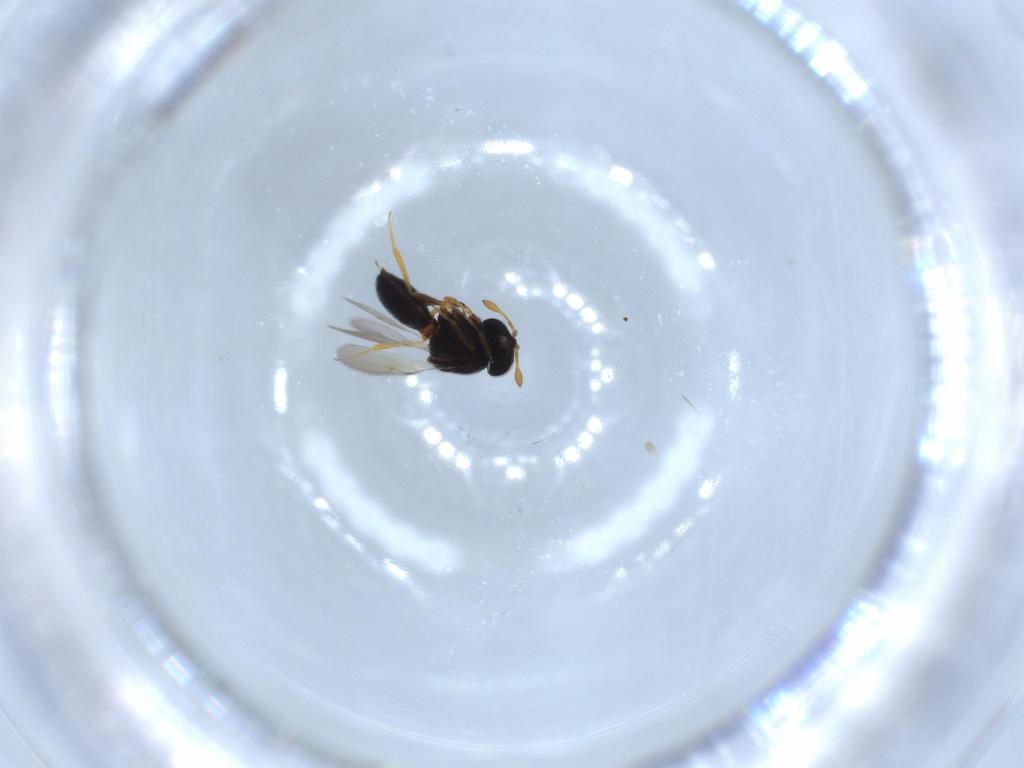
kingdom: Animalia
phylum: Arthropoda
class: Insecta
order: Hymenoptera
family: Scelionidae
